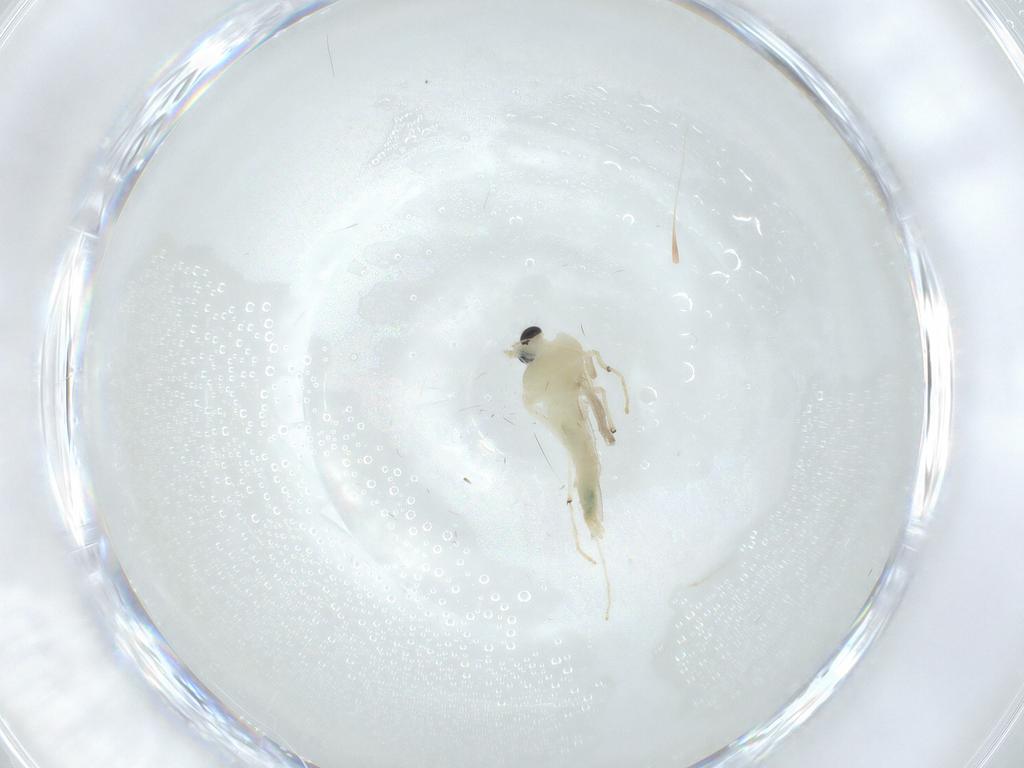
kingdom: Animalia
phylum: Arthropoda
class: Insecta
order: Diptera
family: Chironomidae
